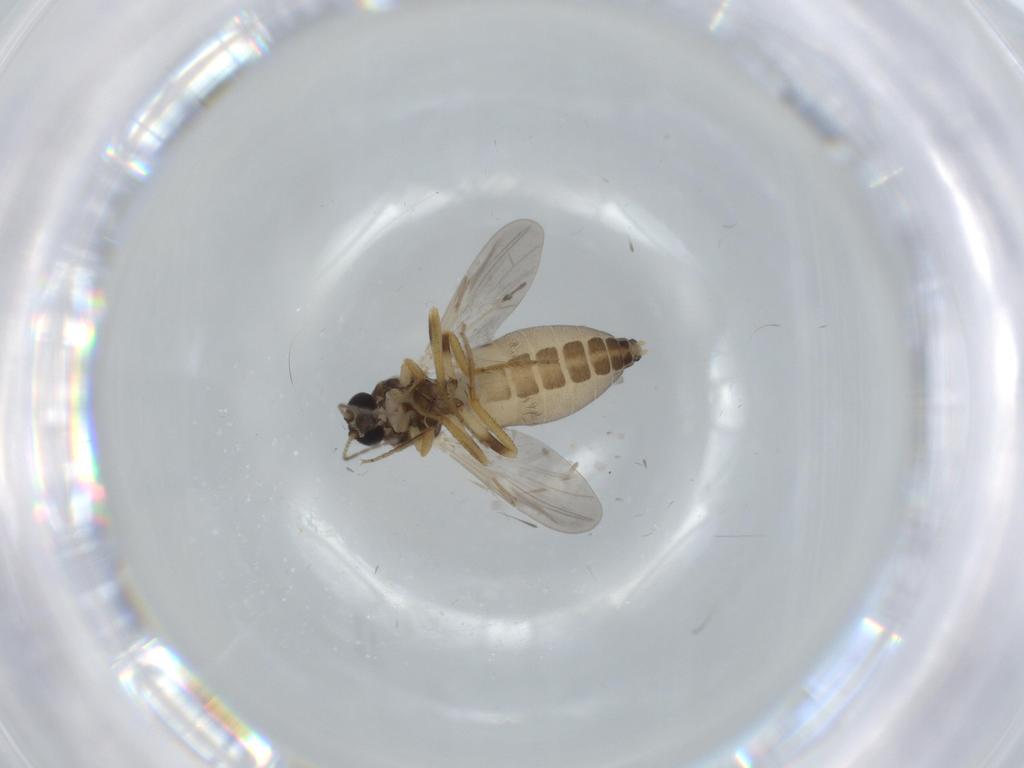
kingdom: Animalia
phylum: Arthropoda
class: Insecta
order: Diptera
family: Ceratopogonidae
